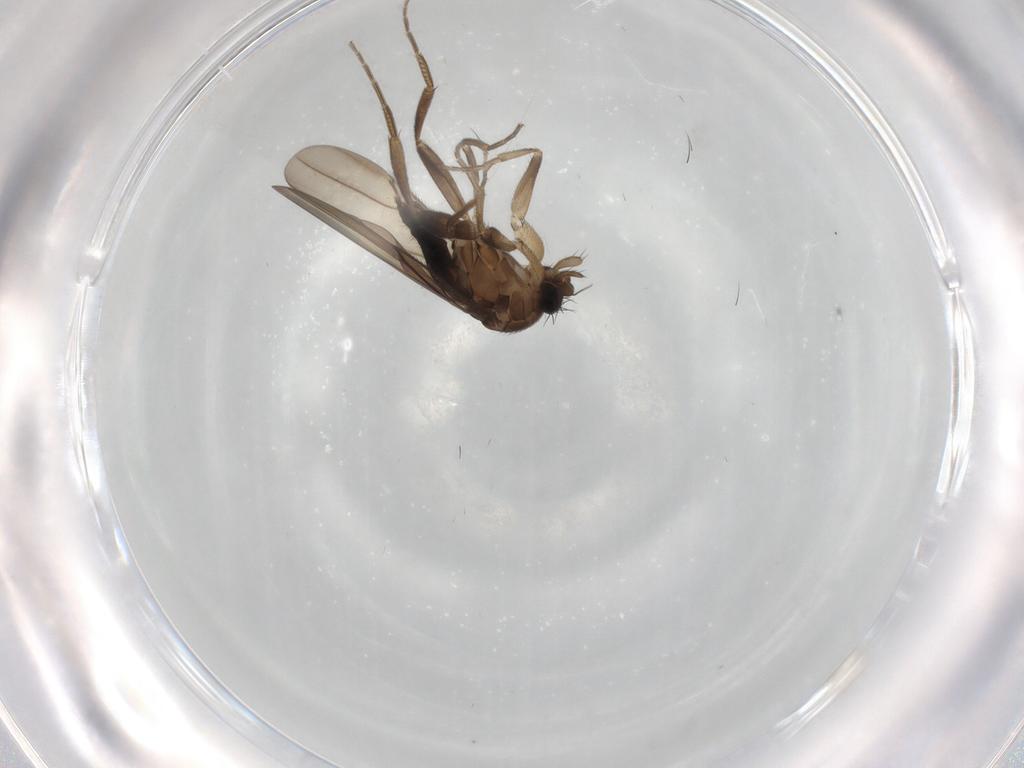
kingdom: Animalia
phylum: Arthropoda
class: Insecta
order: Diptera
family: Phoridae
